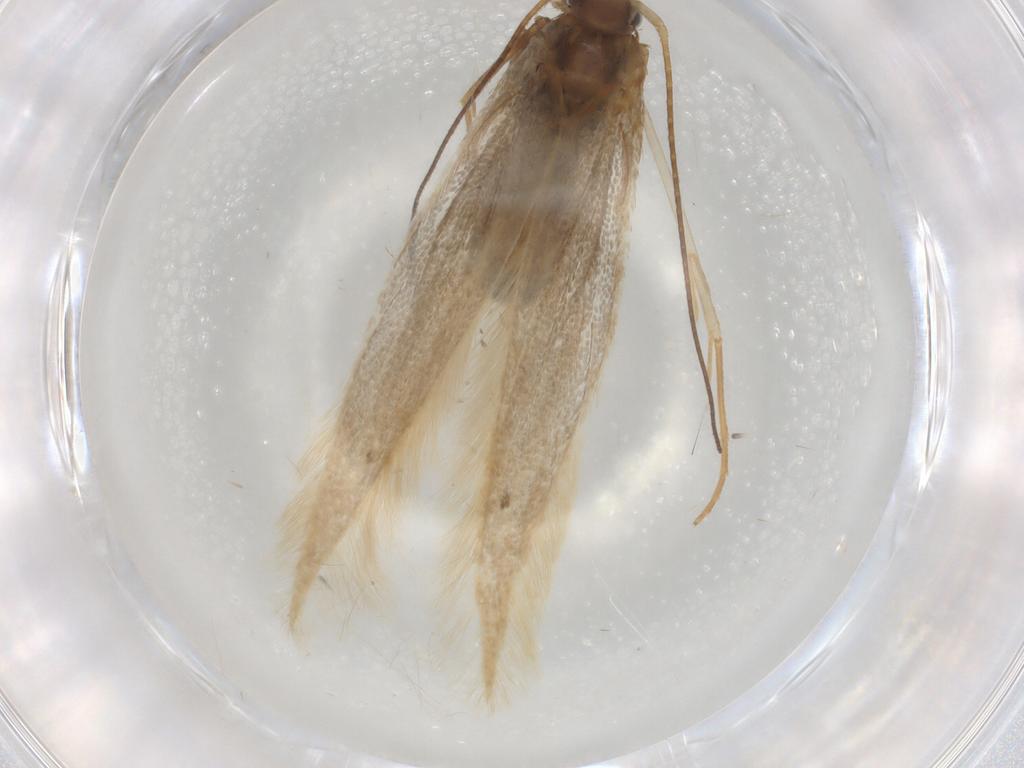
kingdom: Animalia
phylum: Arthropoda
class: Insecta
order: Lepidoptera
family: Coleophoridae
